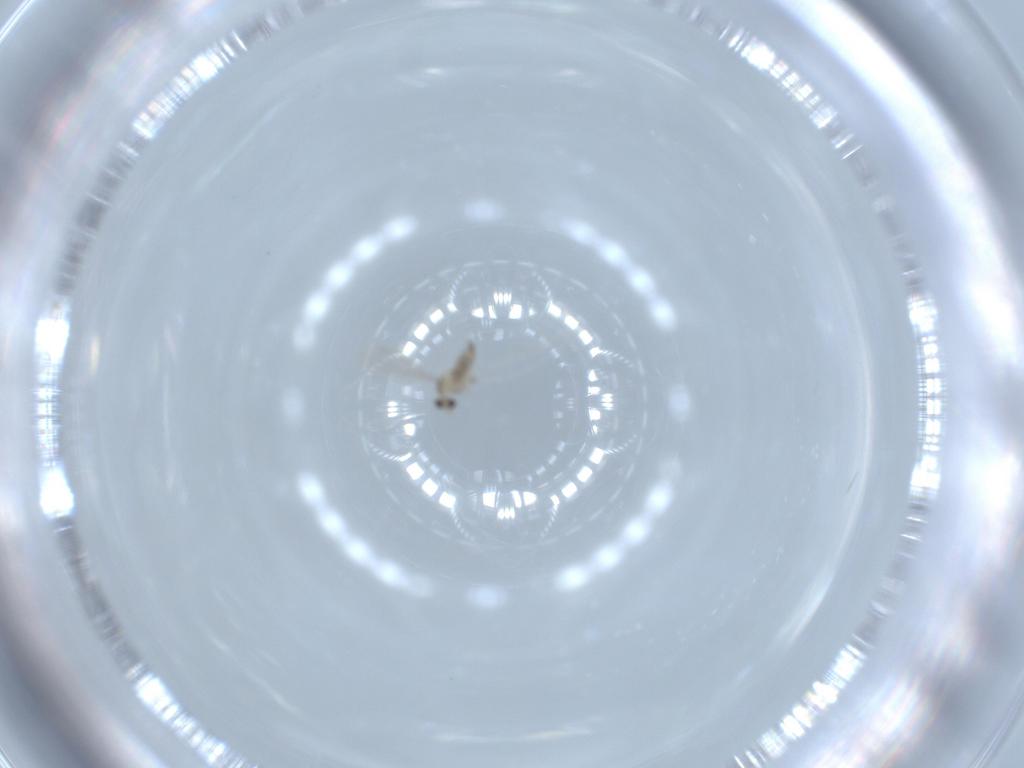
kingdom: Animalia
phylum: Arthropoda
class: Insecta
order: Diptera
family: Cecidomyiidae
